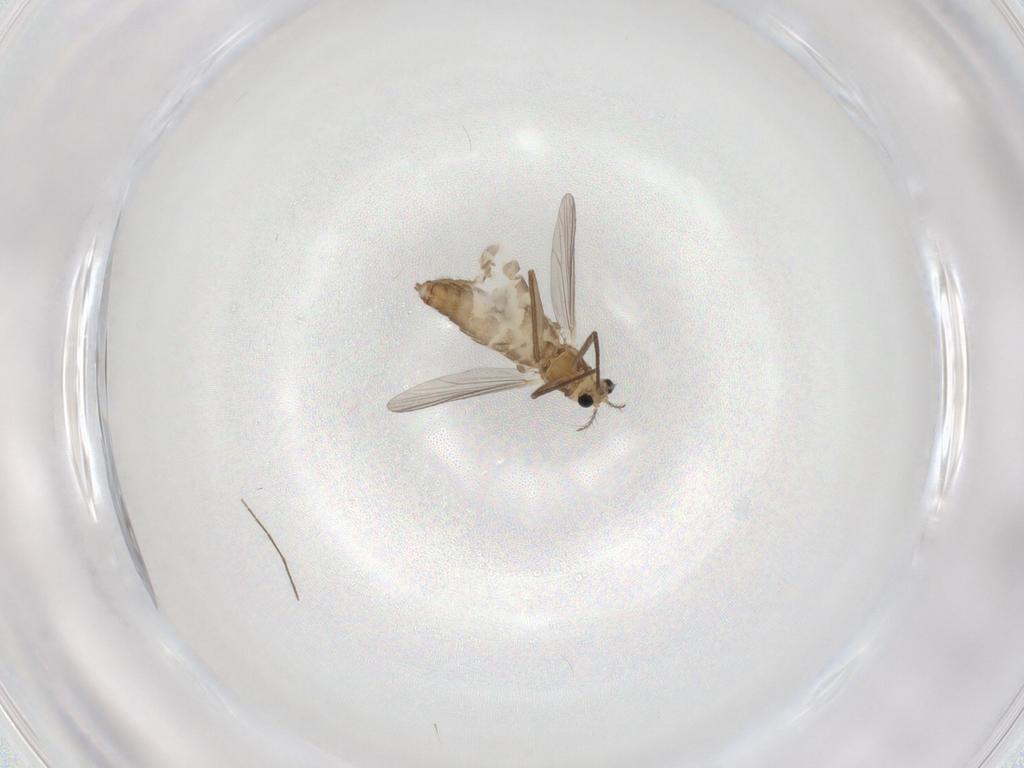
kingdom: Animalia
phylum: Arthropoda
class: Insecta
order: Diptera
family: Chironomidae
